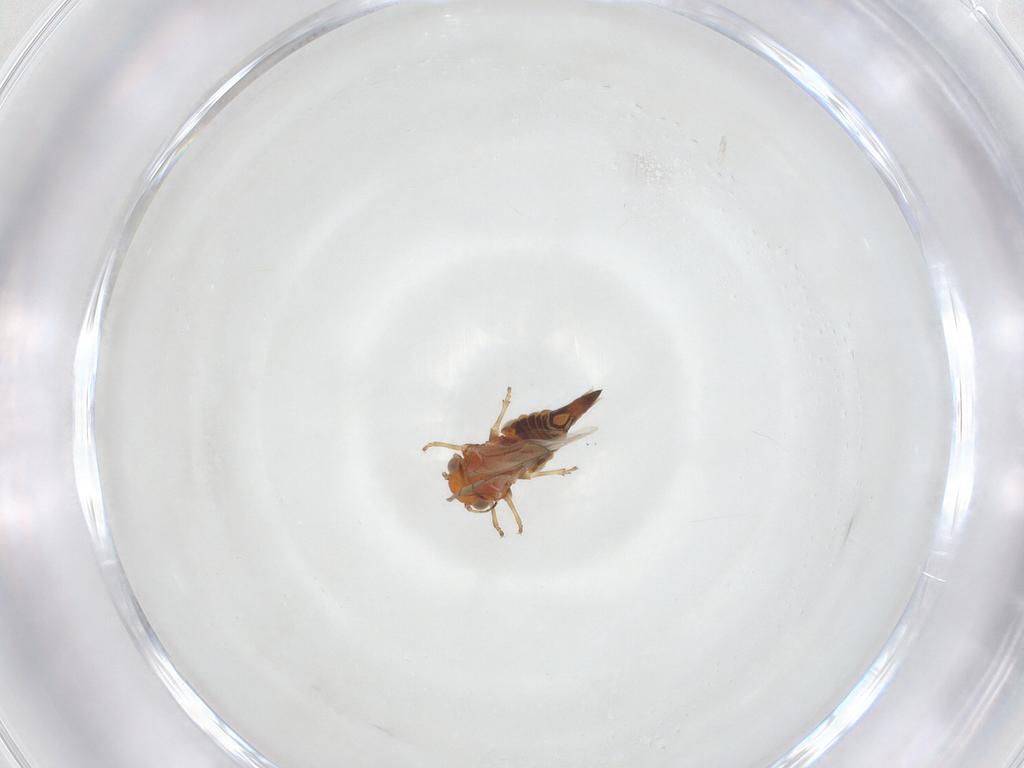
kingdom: Animalia
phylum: Arthropoda
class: Insecta
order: Hemiptera
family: Aphalaridae
